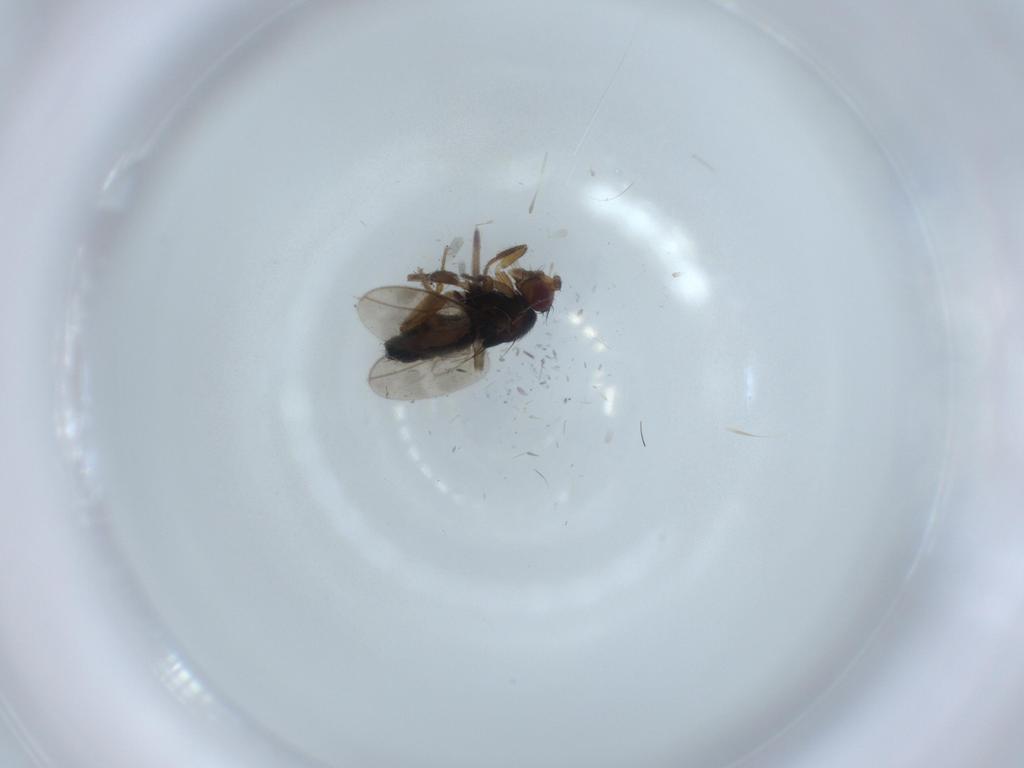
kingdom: Animalia
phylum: Arthropoda
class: Insecta
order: Diptera
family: Sphaeroceridae
